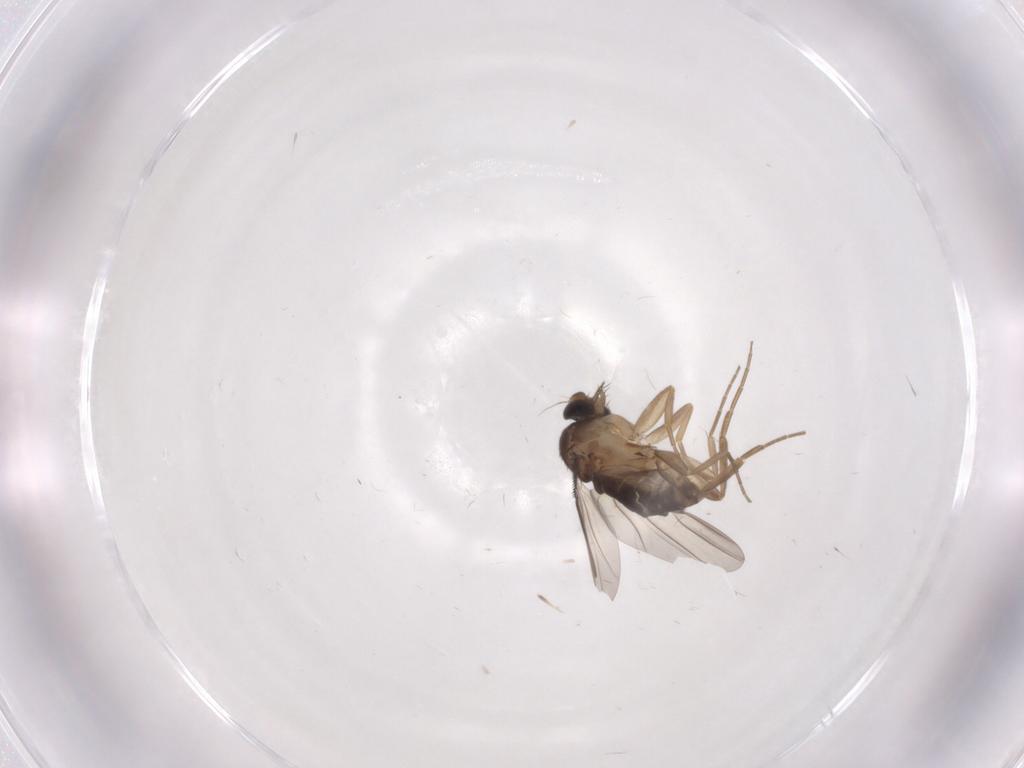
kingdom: Animalia
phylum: Arthropoda
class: Insecta
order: Diptera
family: Phoridae
